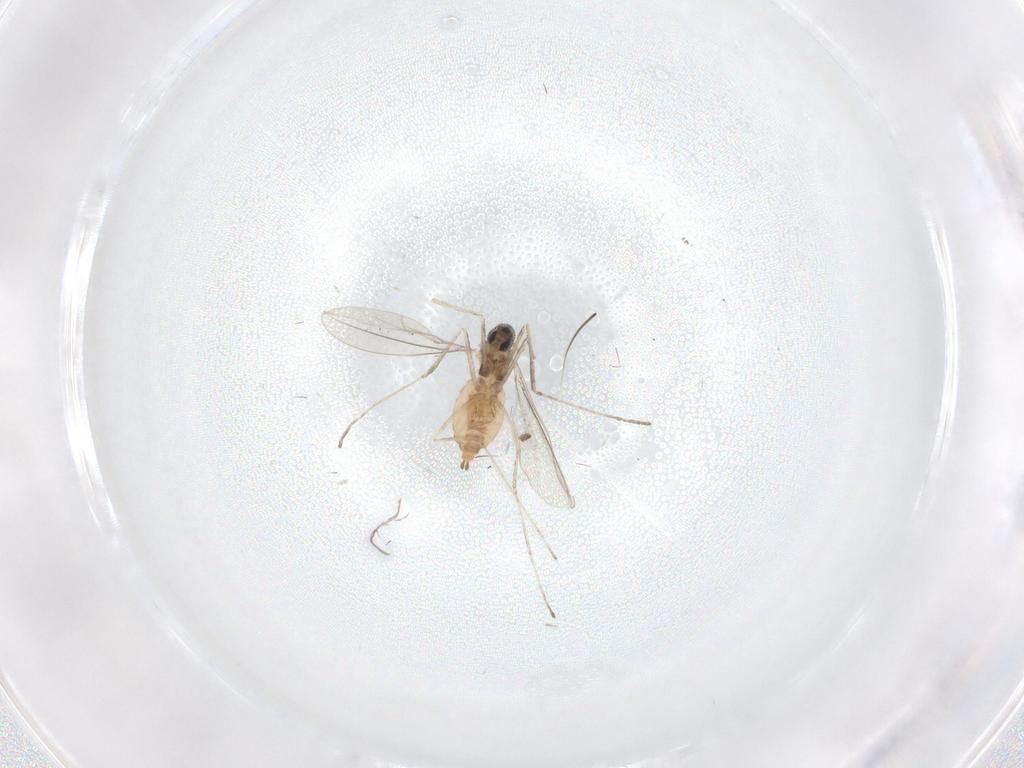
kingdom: Animalia
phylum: Arthropoda
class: Insecta
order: Diptera
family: Cecidomyiidae
